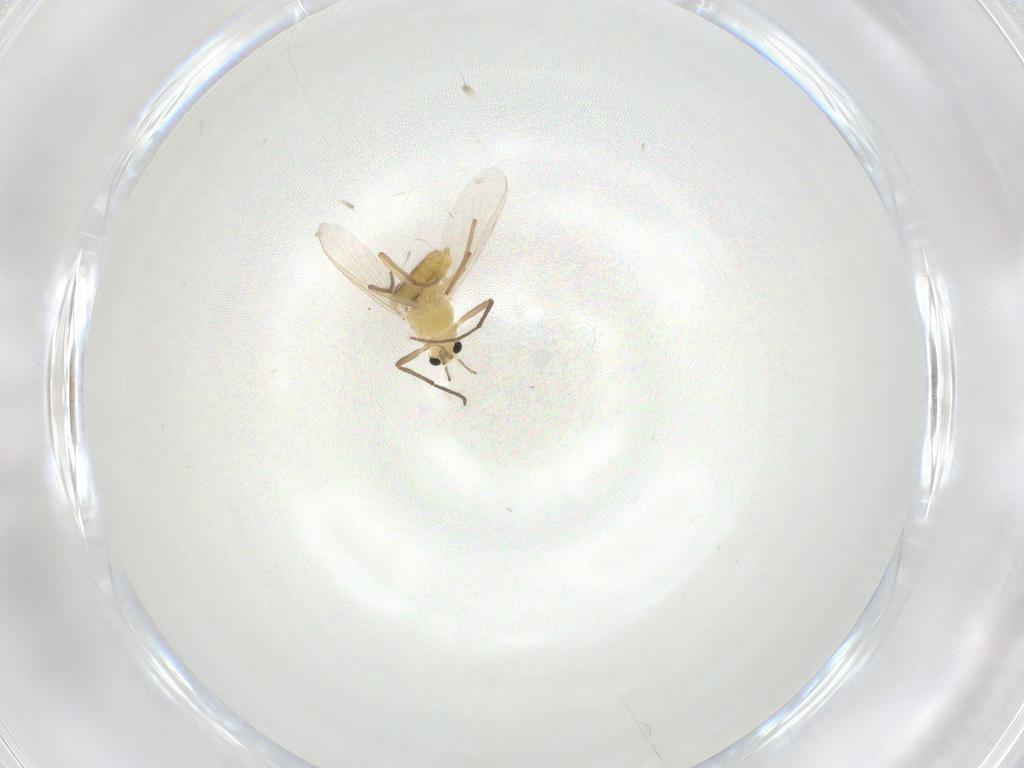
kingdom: Animalia
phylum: Arthropoda
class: Insecta
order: Diptera
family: Chironomidae
